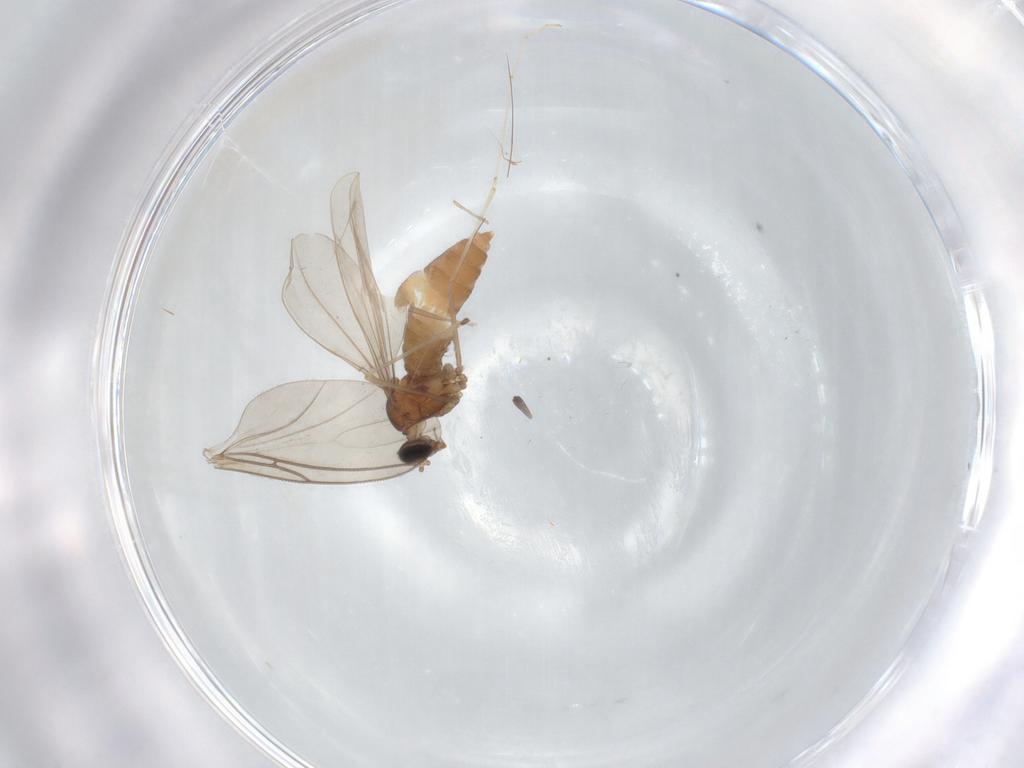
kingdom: Animalia
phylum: Arthropoda
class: Insecta
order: Diptera
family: Cecidomyiidae
